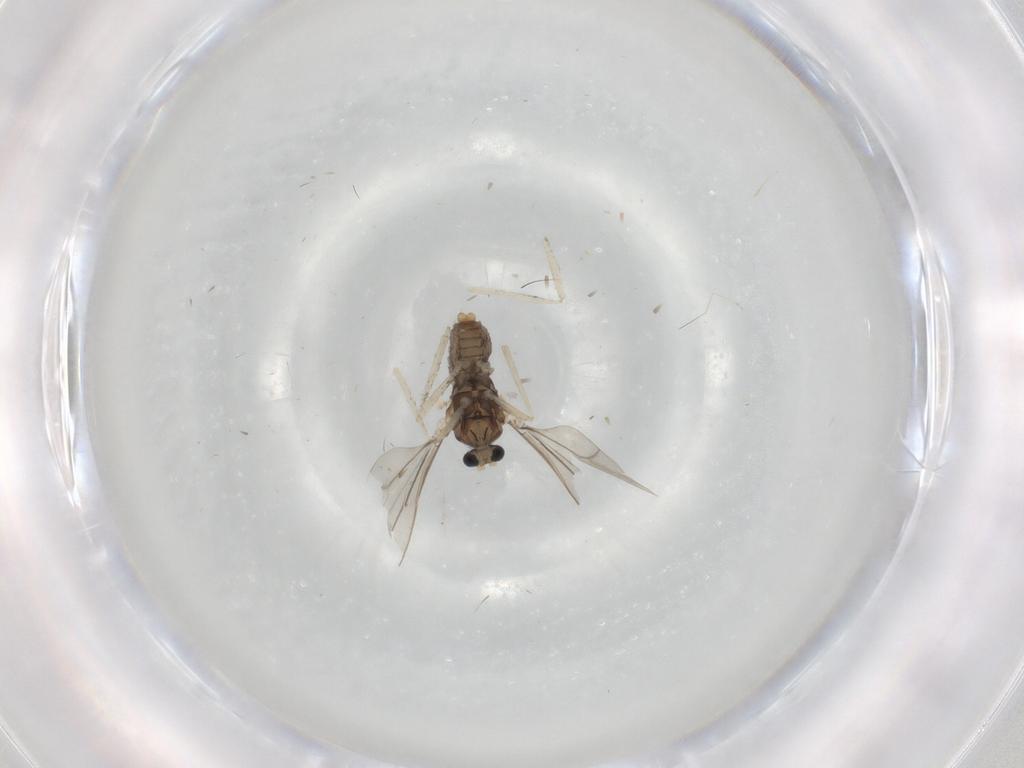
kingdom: Animalia
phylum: Arthropoda
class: Insecta
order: Diptera
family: Cecidomyiidae
